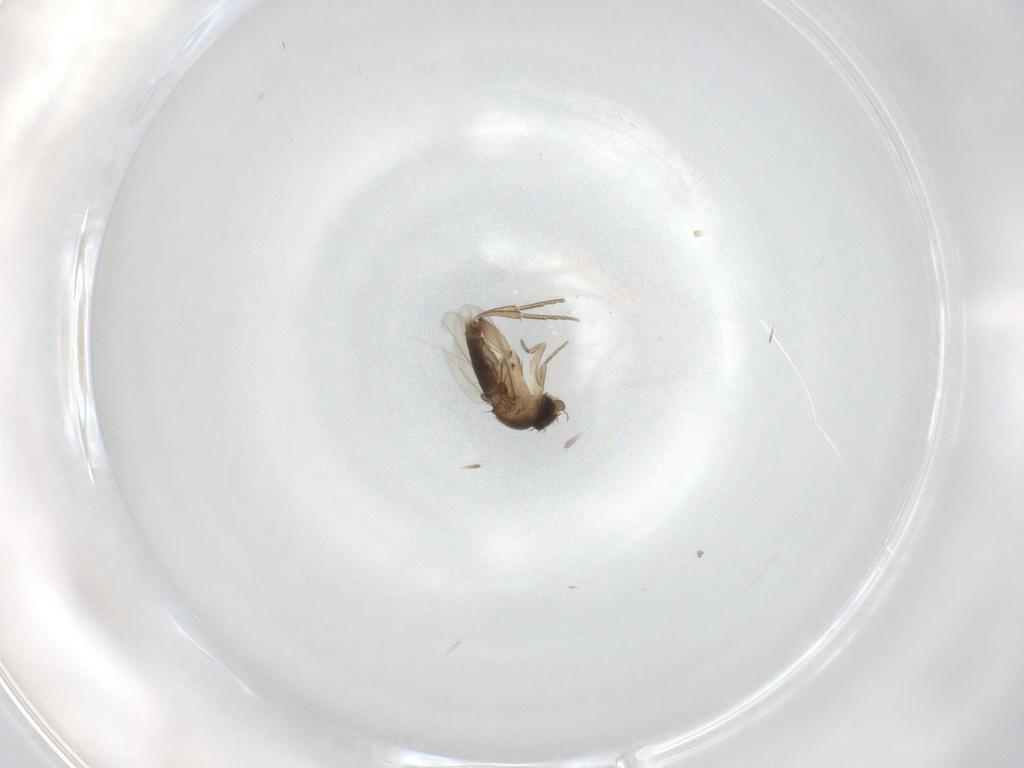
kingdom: Animalia
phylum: Arthropoda
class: Insecta
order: Diptera
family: Phoridae
